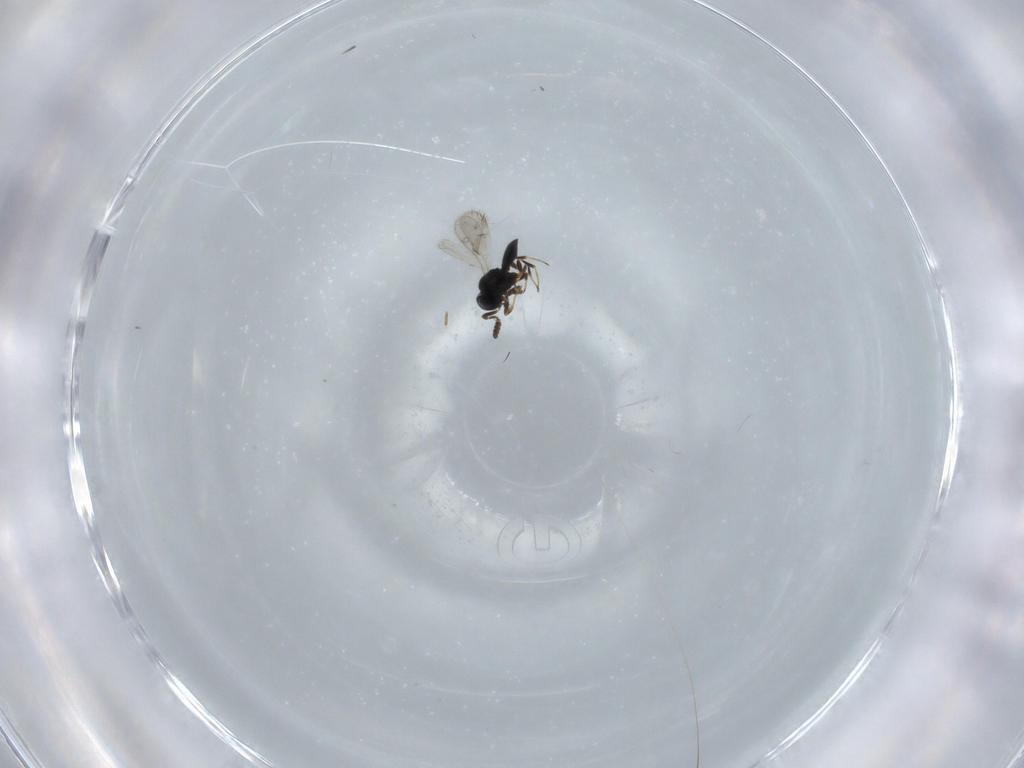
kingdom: Animalia
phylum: Arthropoda
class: Insecta
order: Hymenoptera
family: Scelionidae
